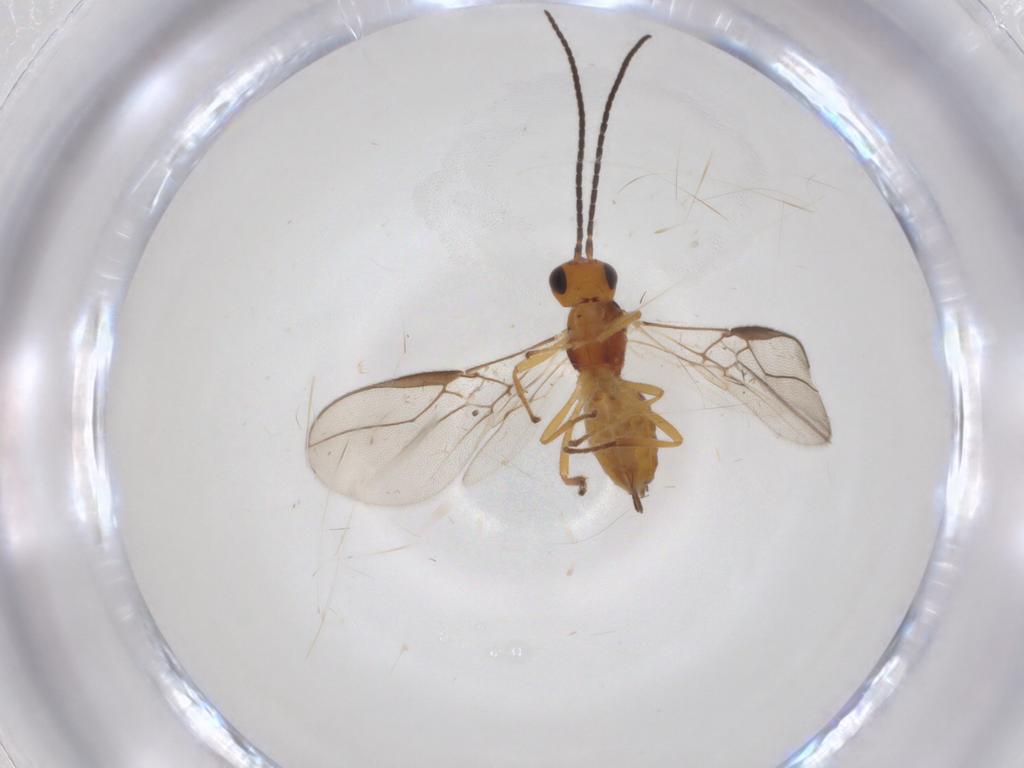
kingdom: Animalia
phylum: Arthropoda
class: Insecta
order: Hymenoptera
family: Braconidae
